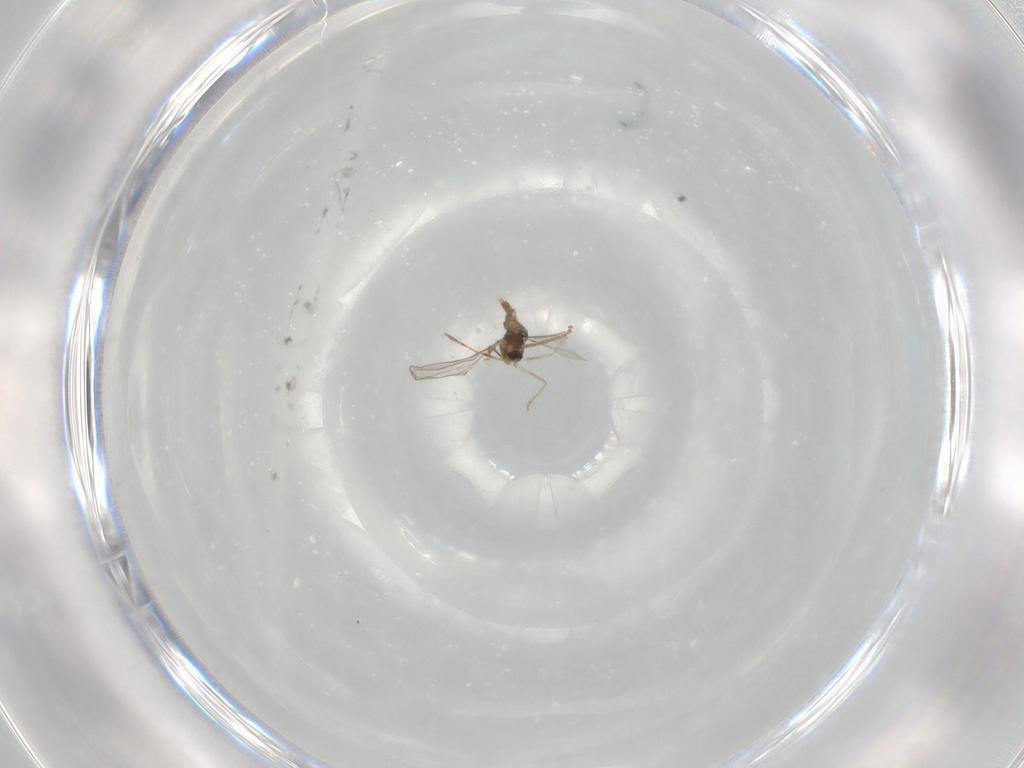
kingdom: Animalia
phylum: Arthropoda
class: Insecta
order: Diptera
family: Chironomidae
